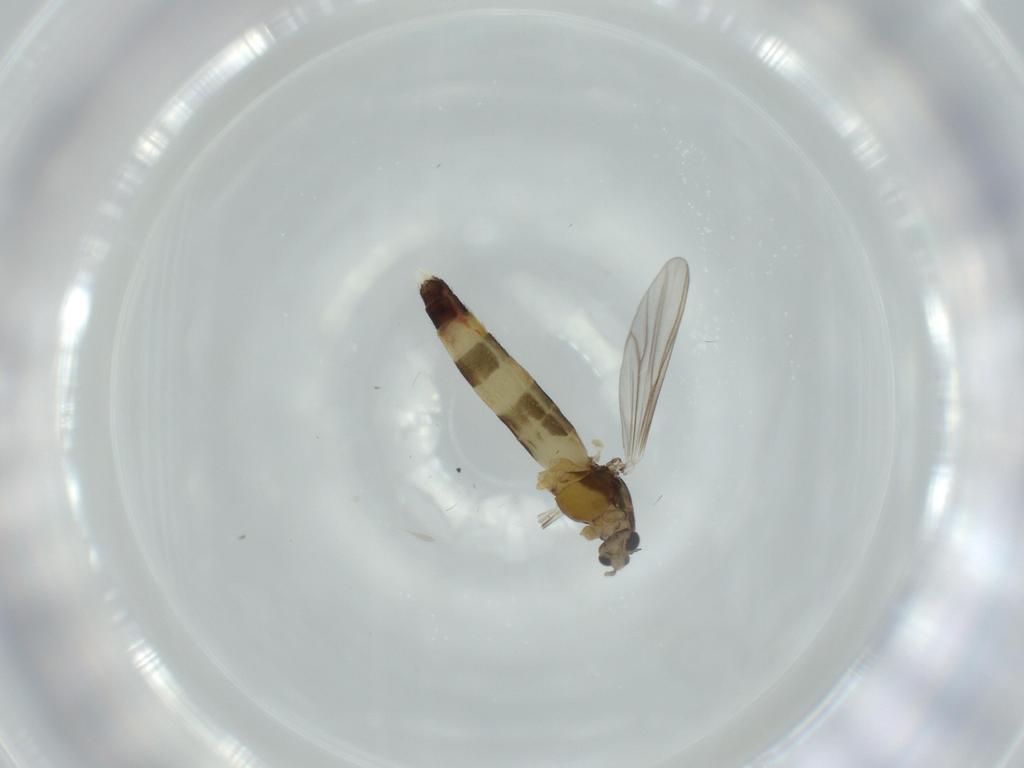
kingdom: Animalia
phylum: Arthropoda
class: Insecta
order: Diptera
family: Chironomidae
